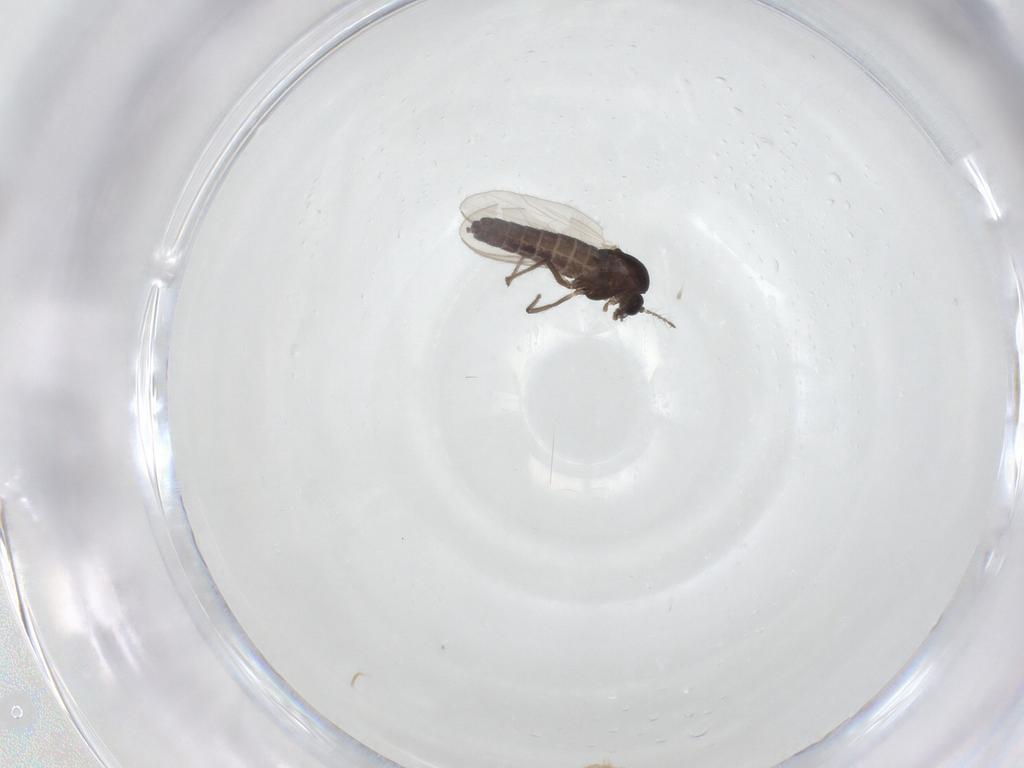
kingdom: Animalia
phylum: Arthropoda
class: Insecta
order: Diptera
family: Chironomidae
